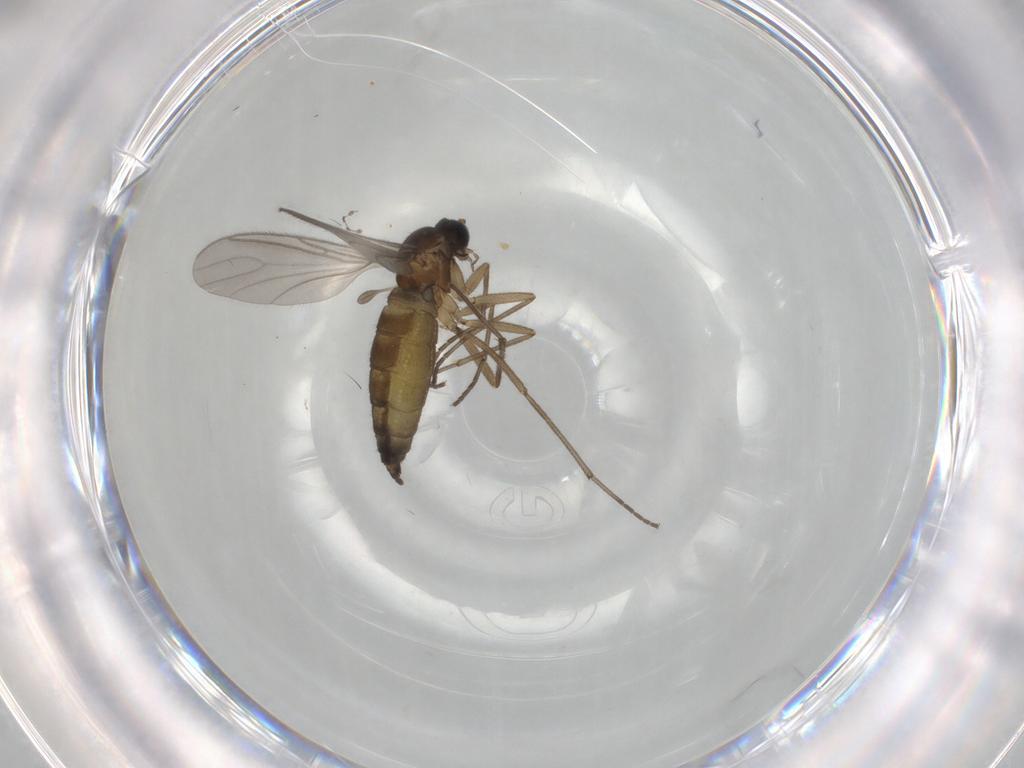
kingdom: Animalia
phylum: Arthropoda
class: Insecta
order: Diptera
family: Sciaridae
